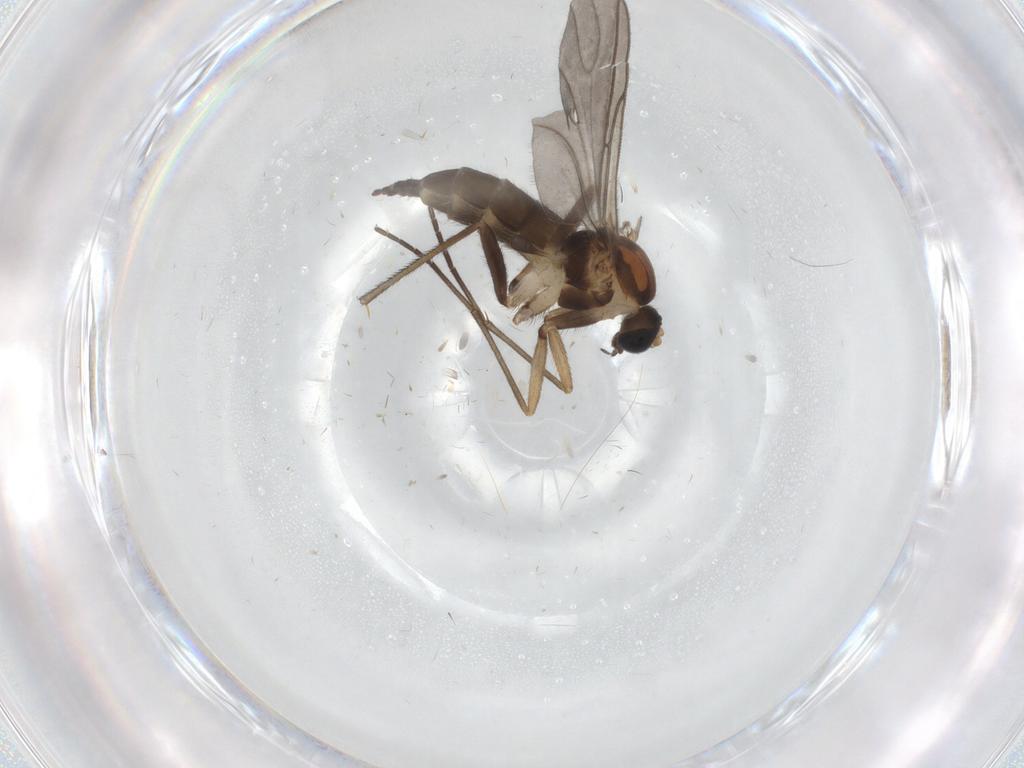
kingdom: Animalia
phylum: Arthropoda
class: Insecta
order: Diptera
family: Sciaridae
